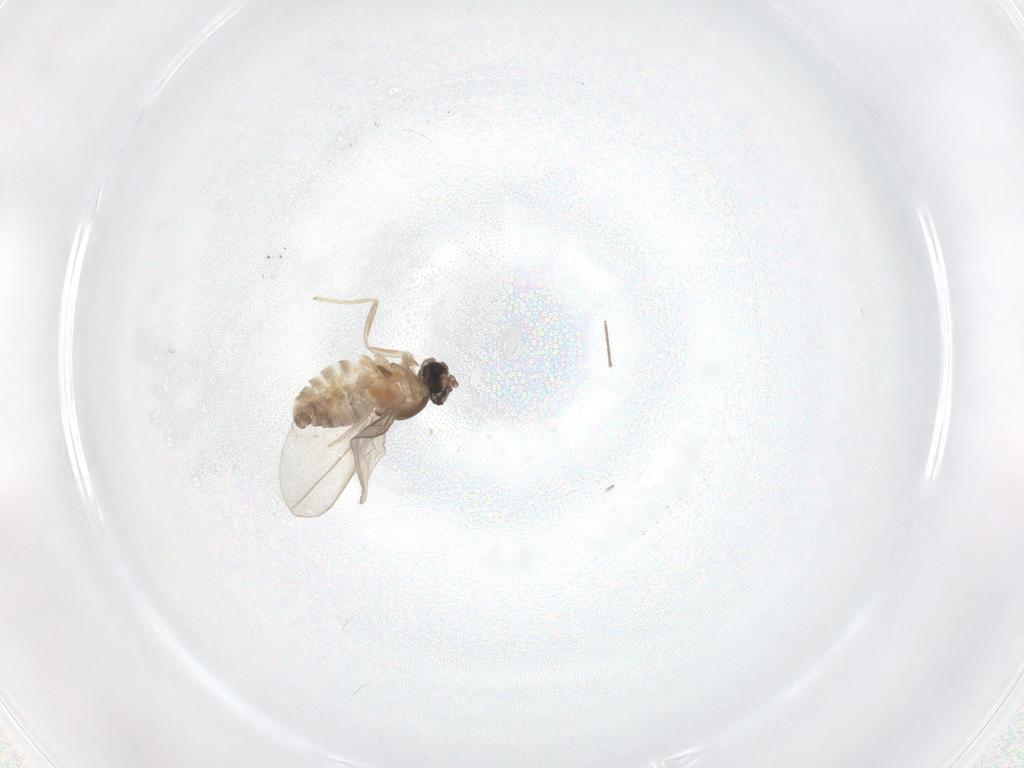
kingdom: Animalia
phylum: Arthropoda
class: Insecta
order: Diptera
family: Cecidomyiidae
